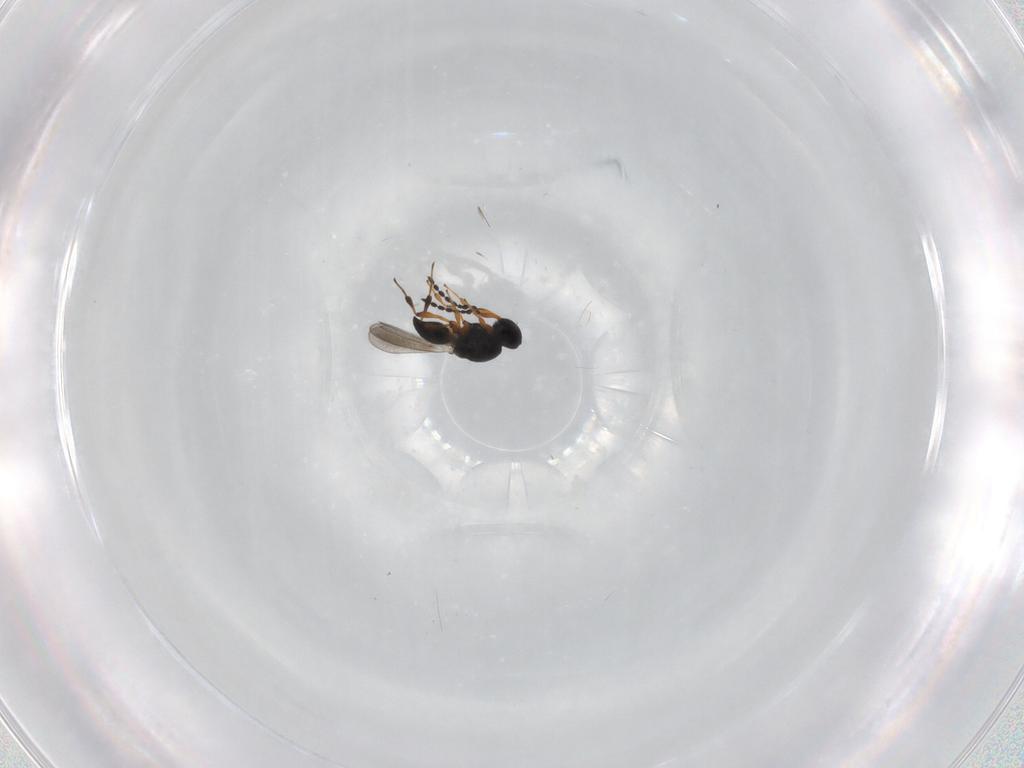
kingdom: Animalia
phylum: Arthropoda
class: Insecta
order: Hymenoptera
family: Platygastridae
